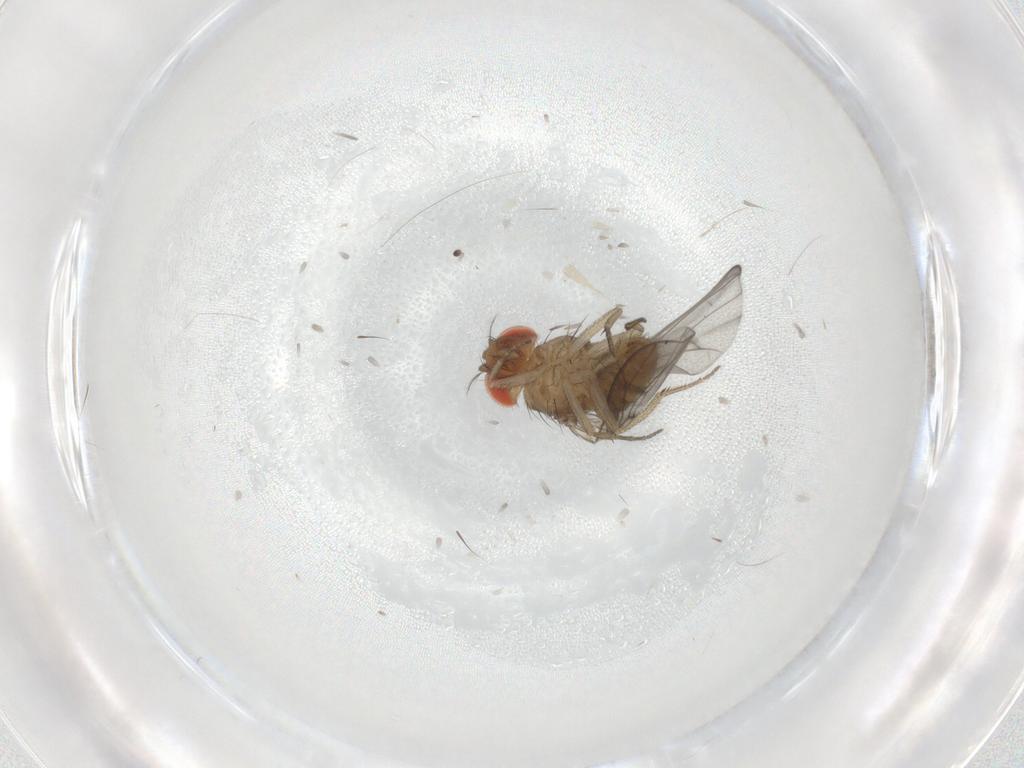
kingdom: Animalia
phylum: Arthropoda
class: Insecta
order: Diptera
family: Drosophilidae
